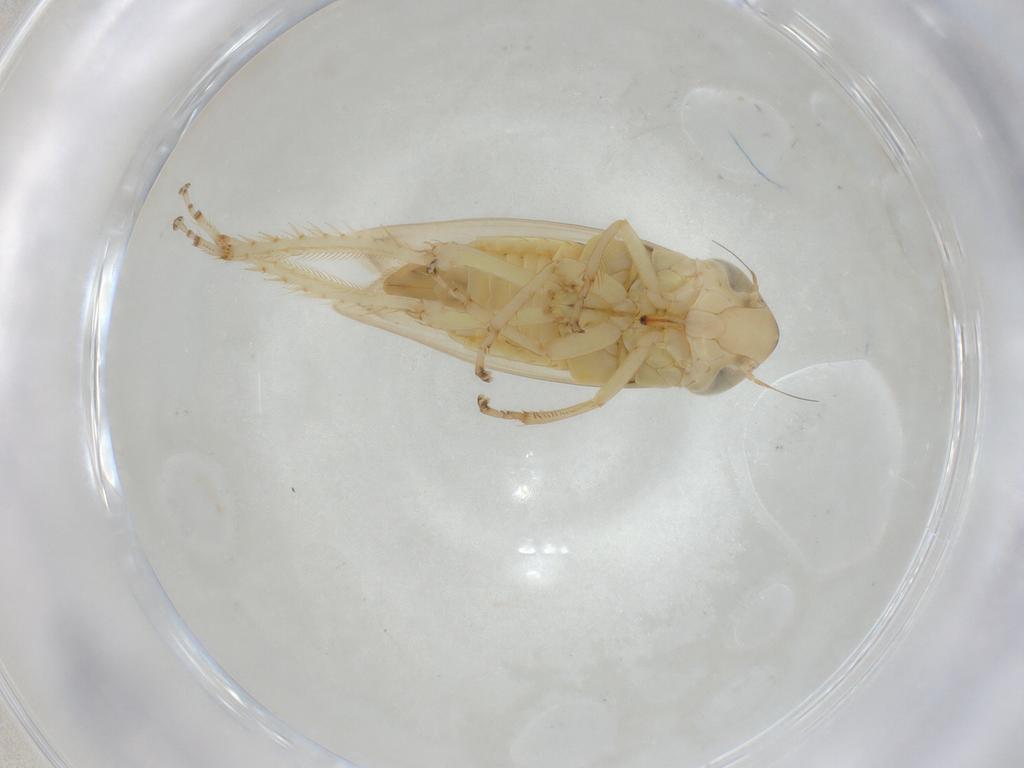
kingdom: Animalia
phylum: Arthropoda
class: Insecta
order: Hemiptera
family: Cicadellidae
